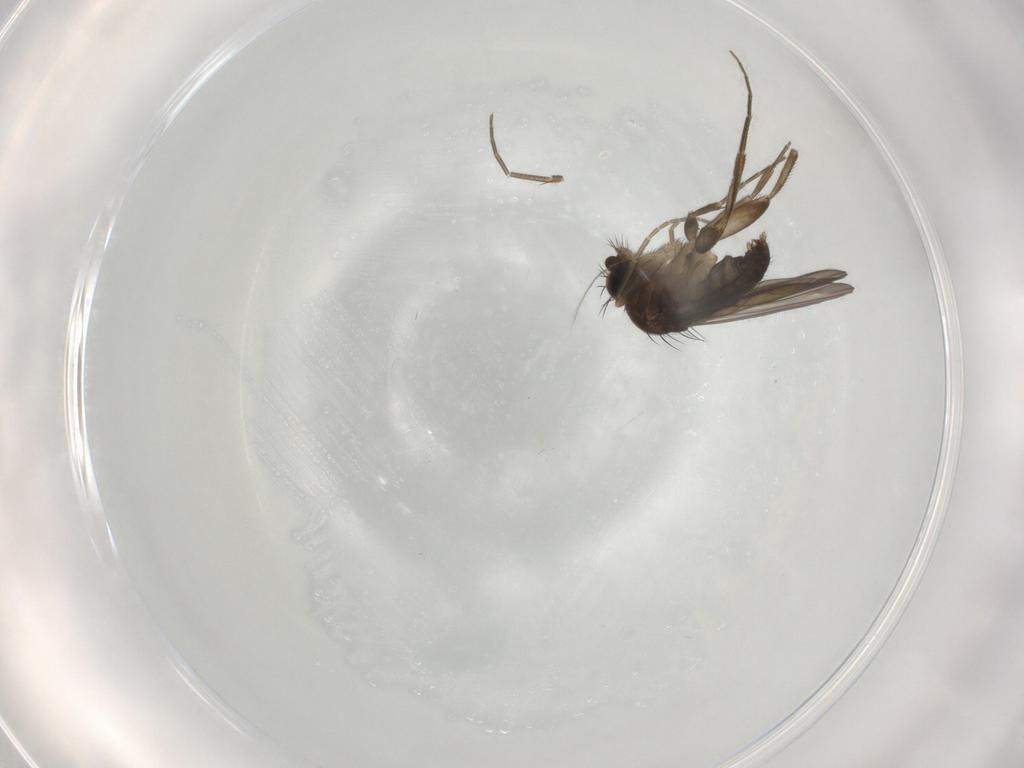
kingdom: Animalia
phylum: Arthropoda
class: Insecta
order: Diptera
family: Phoridae
